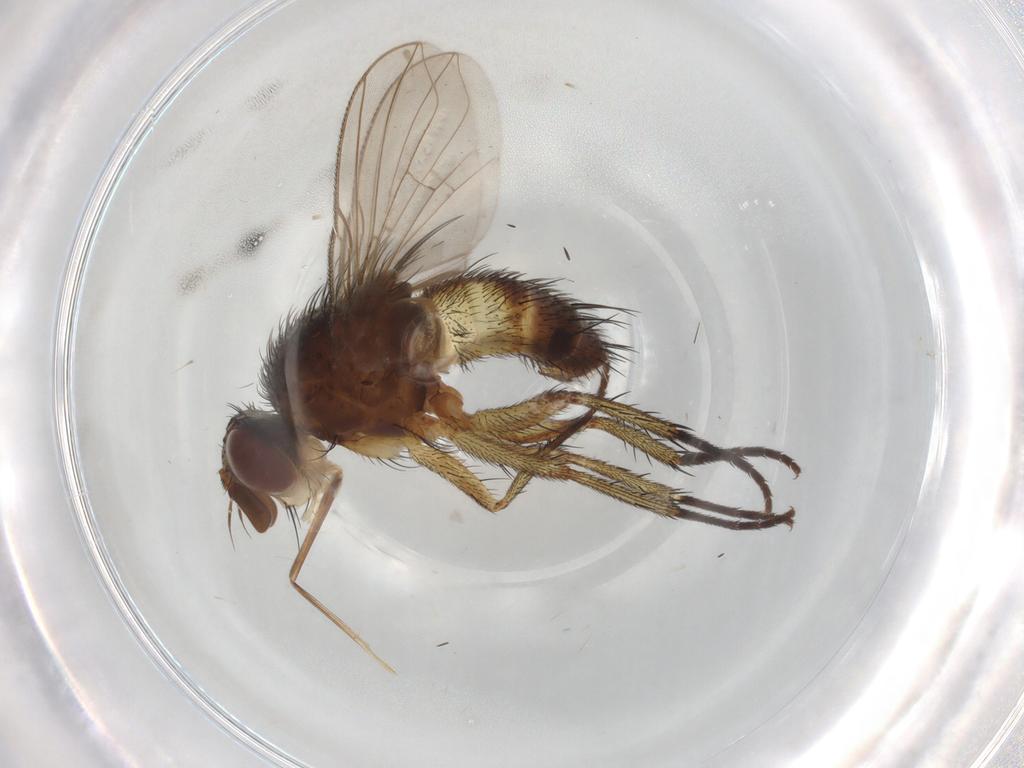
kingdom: Animalia
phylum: Arthropoda
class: Insecta
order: Diptera
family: Tachinidae
